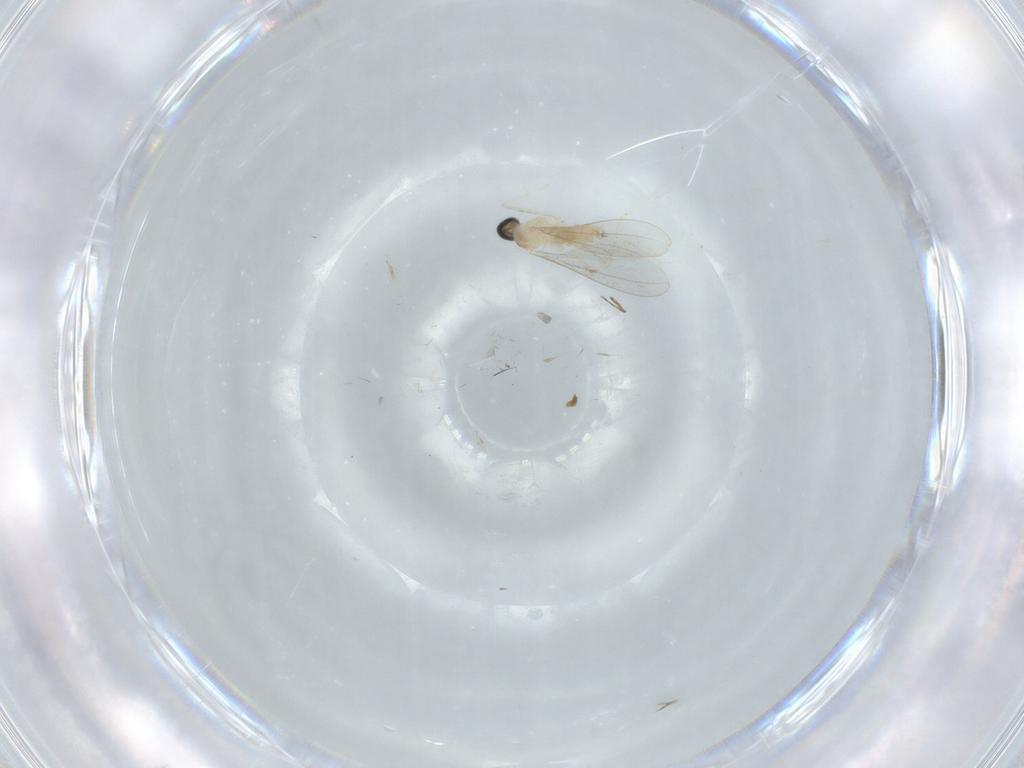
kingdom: Animalia
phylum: Arthropoda
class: Insecta
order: Diptera
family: Cecidomyiidae
